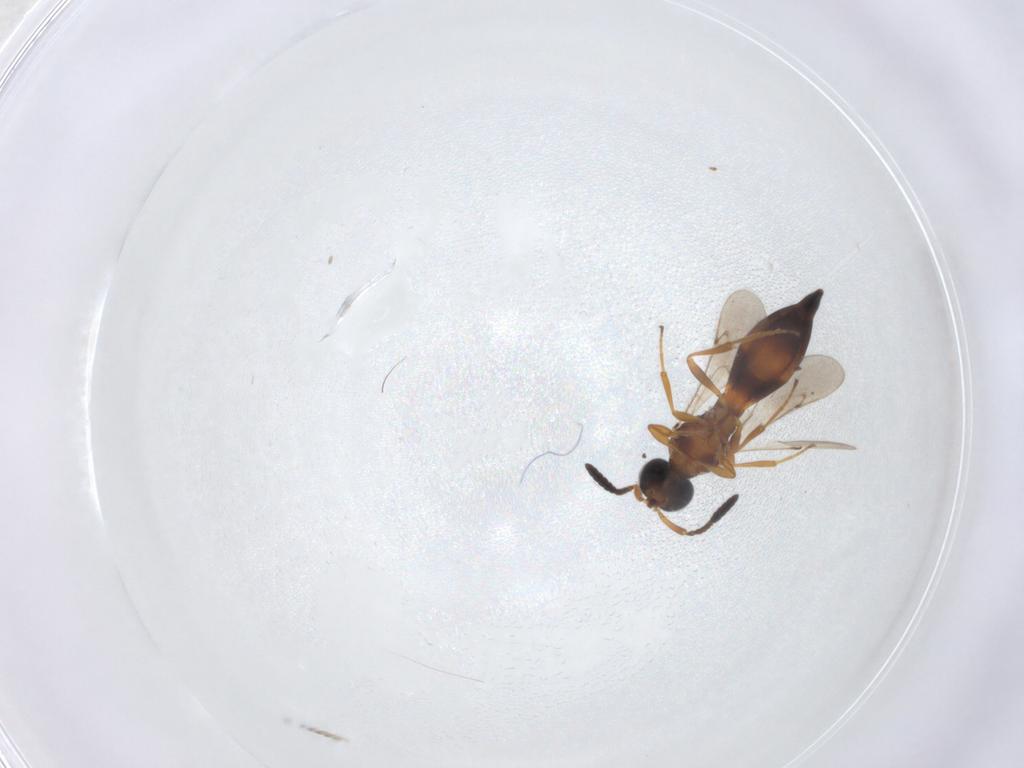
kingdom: Animalia
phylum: Arthropoda
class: Insecta
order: Hymenoptera
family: Scelionidae
